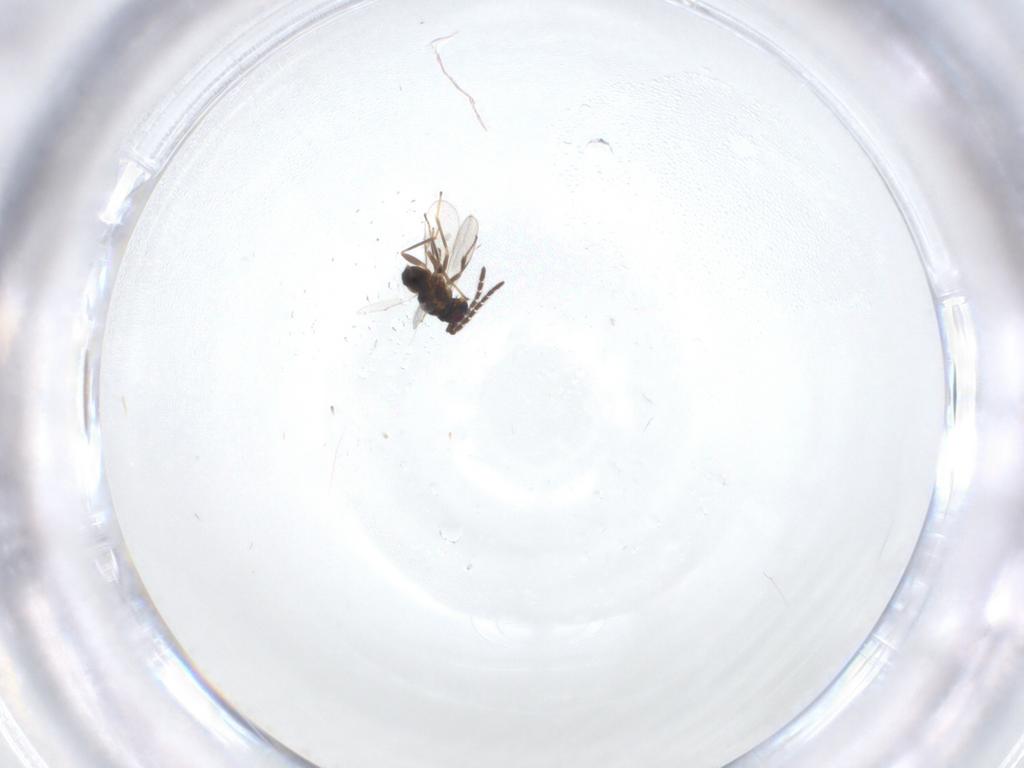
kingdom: Animalia
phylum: Arthropoda
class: Insecta
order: Hymenoptera
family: Encyrtidae
